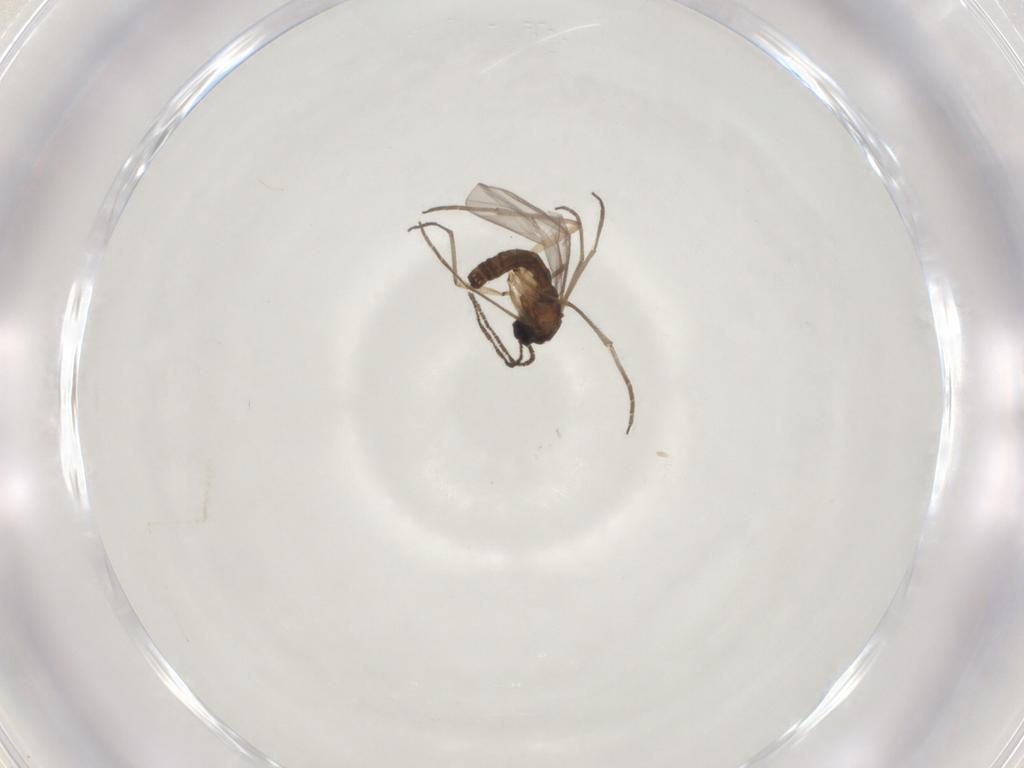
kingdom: Animalia
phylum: Arthropoda
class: Insecta
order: Diptera
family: Sciaridae
